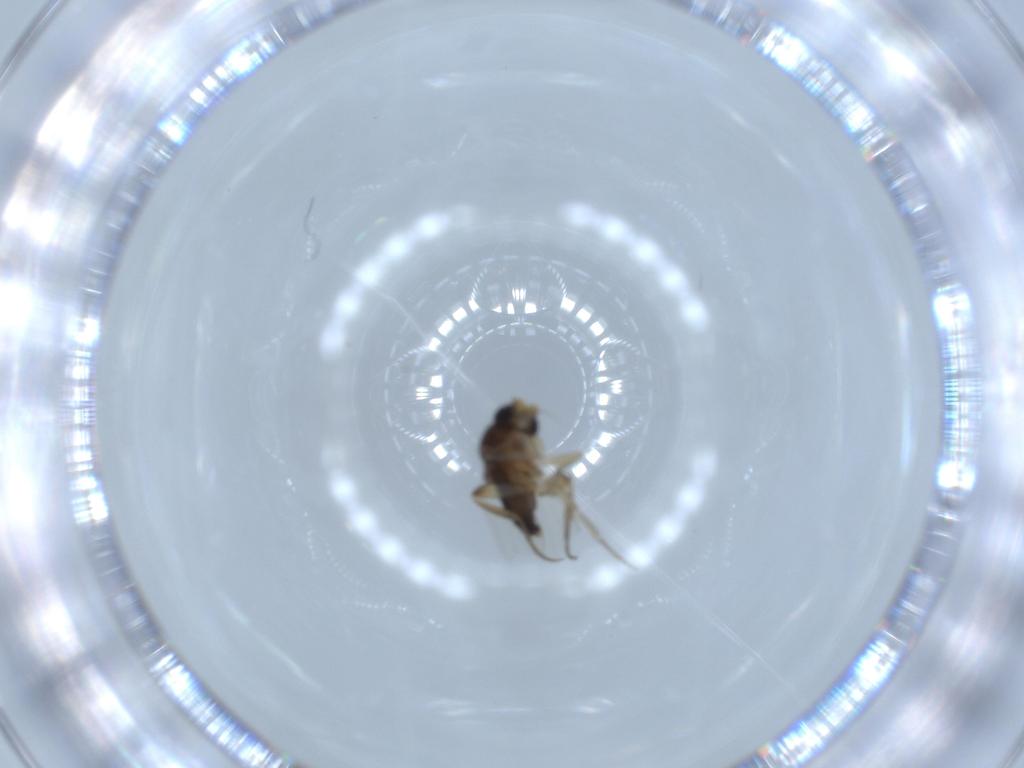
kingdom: Animalia
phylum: Arthropoda
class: Insecta
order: Diptera
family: Phoridae
